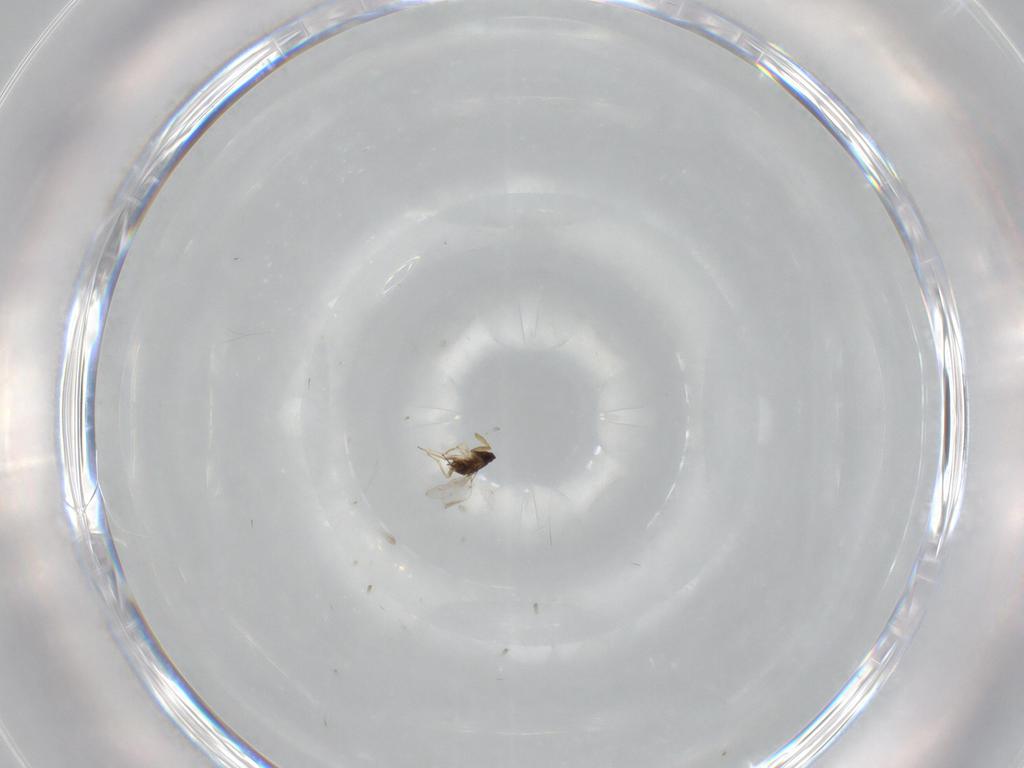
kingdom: Animalia
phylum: Arthropoda
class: Insecta
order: Hymenoptera
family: Encyrtidae
